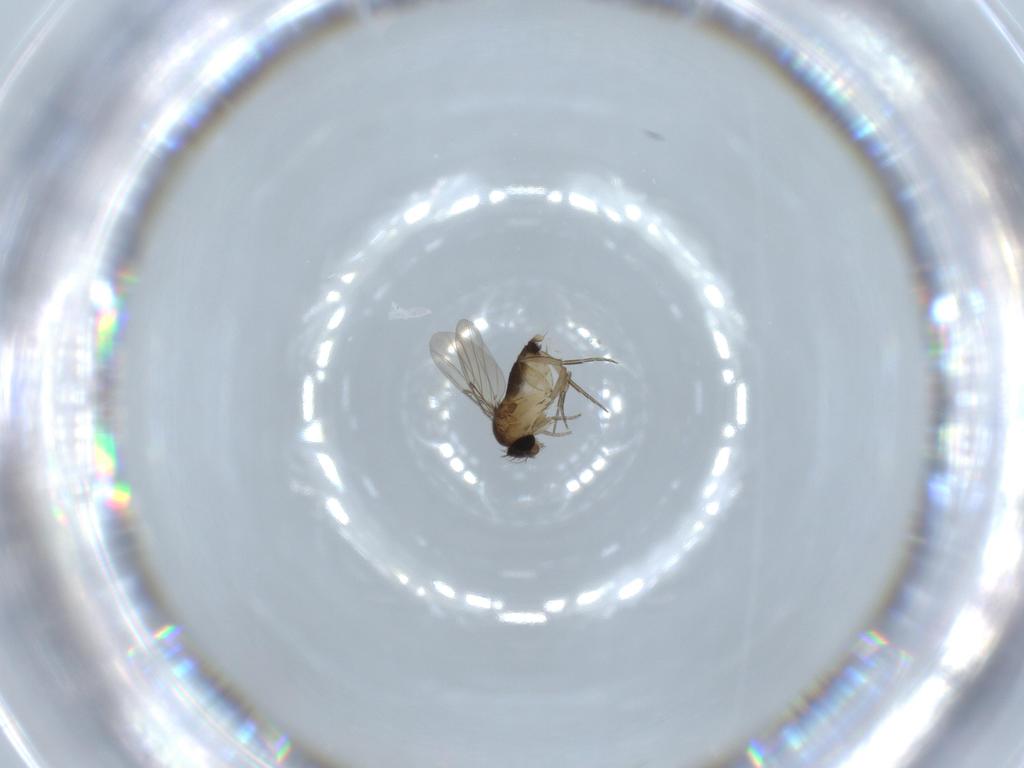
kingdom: Animalia
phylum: Arthropoda
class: Insecta
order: Diptera
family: Phoridae
